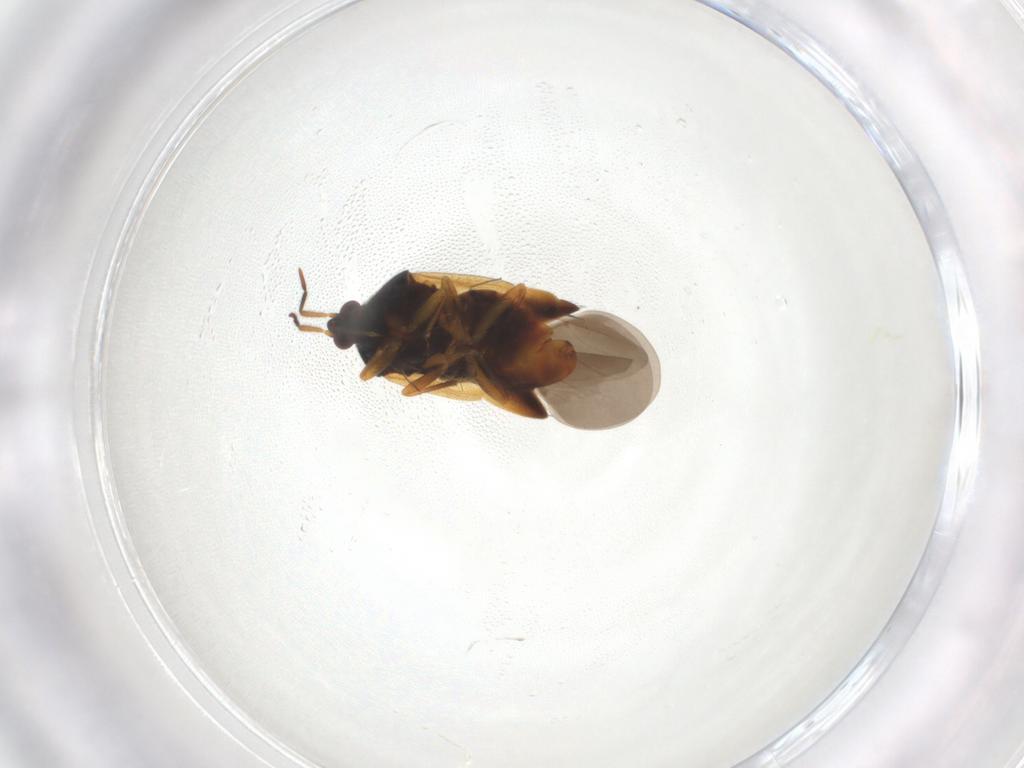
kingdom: Animalia
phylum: Arthropoda
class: Insecta
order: Hemiptera
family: Anthocoridae
